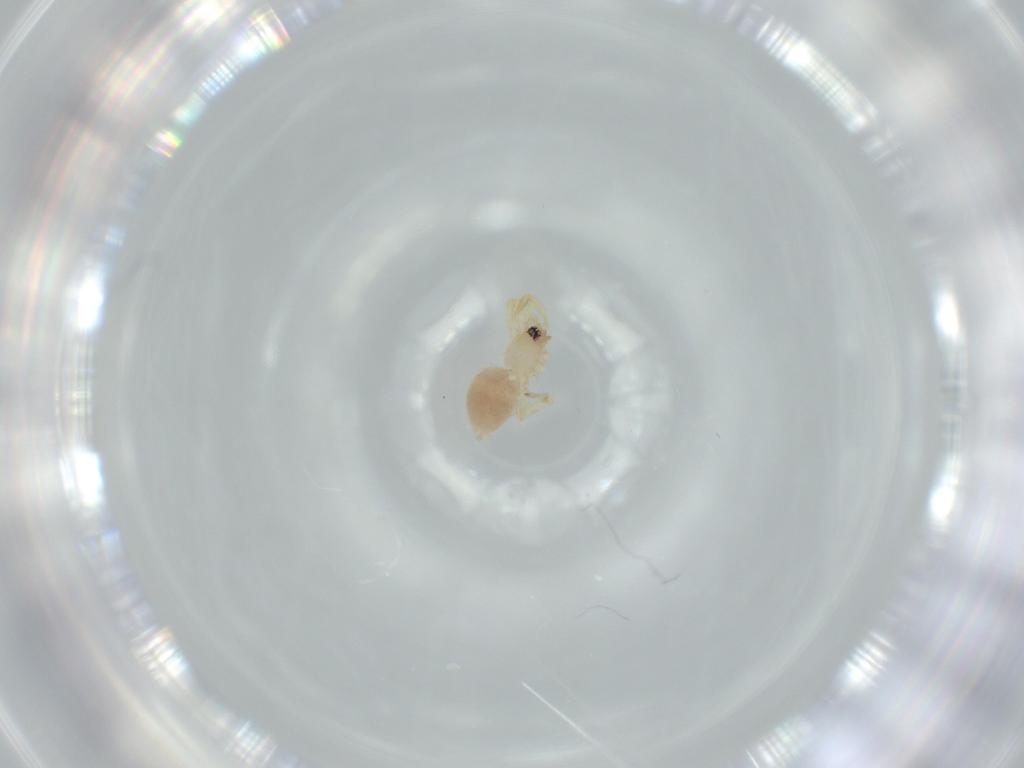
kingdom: Animalia
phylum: Arthropoda
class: Arachnida
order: Araneae
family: Oonopidae
